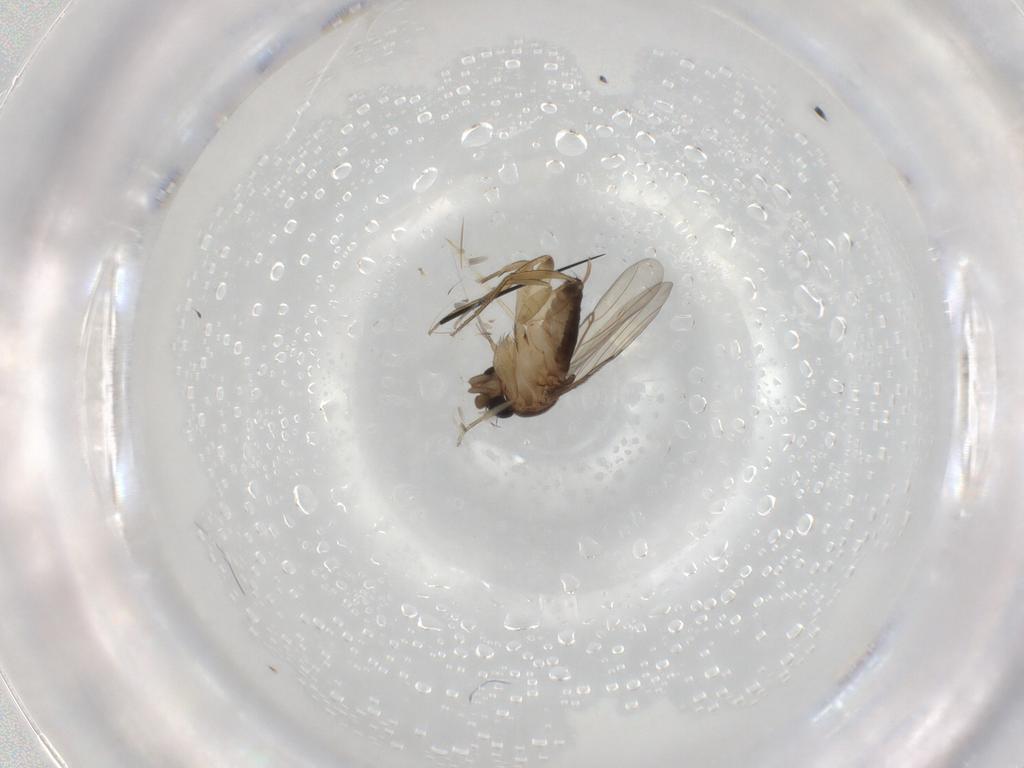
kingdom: Animalia
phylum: Arthropoda
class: Insecta
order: Diptera
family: Phoridae
